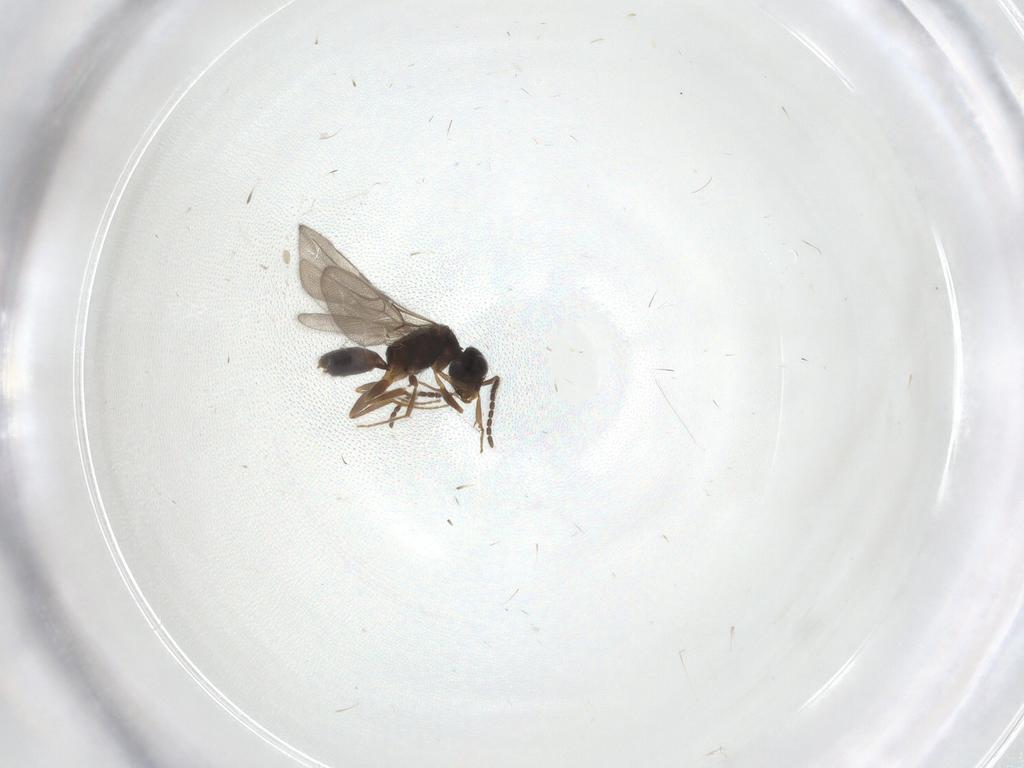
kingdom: Animalia
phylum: Arthropoda
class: Insecta
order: Hymenoptera
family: Bethylidae
